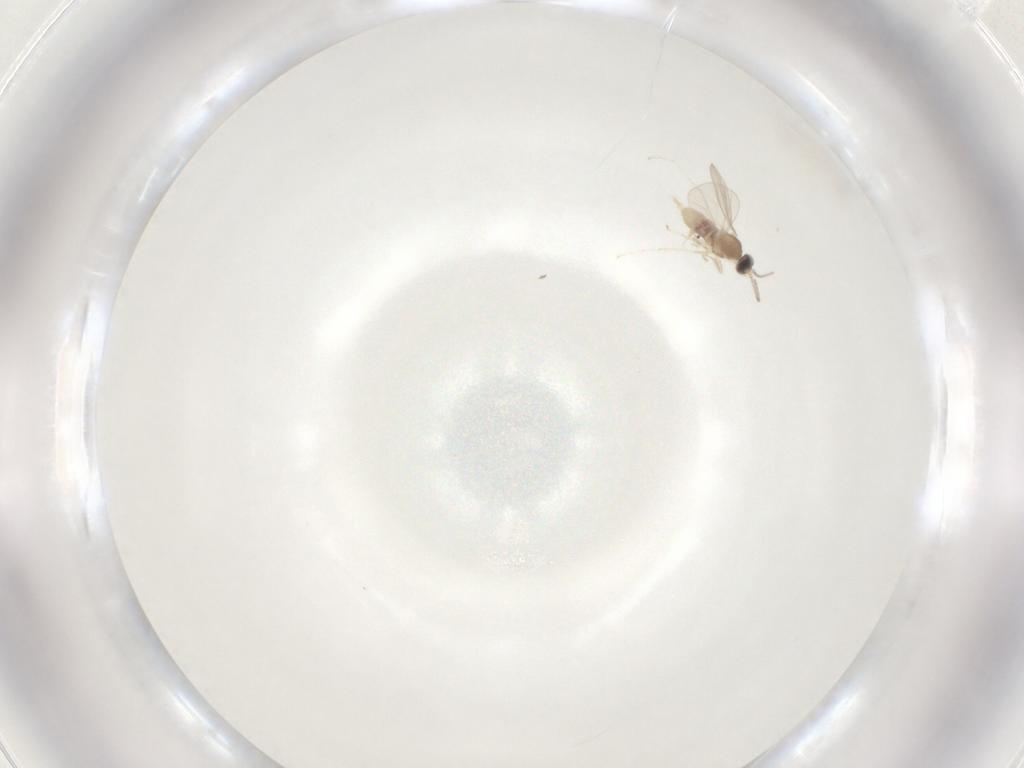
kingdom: Animalia
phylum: Arthropoda
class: Insecta
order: Diptera
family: Cecidomyiidae
